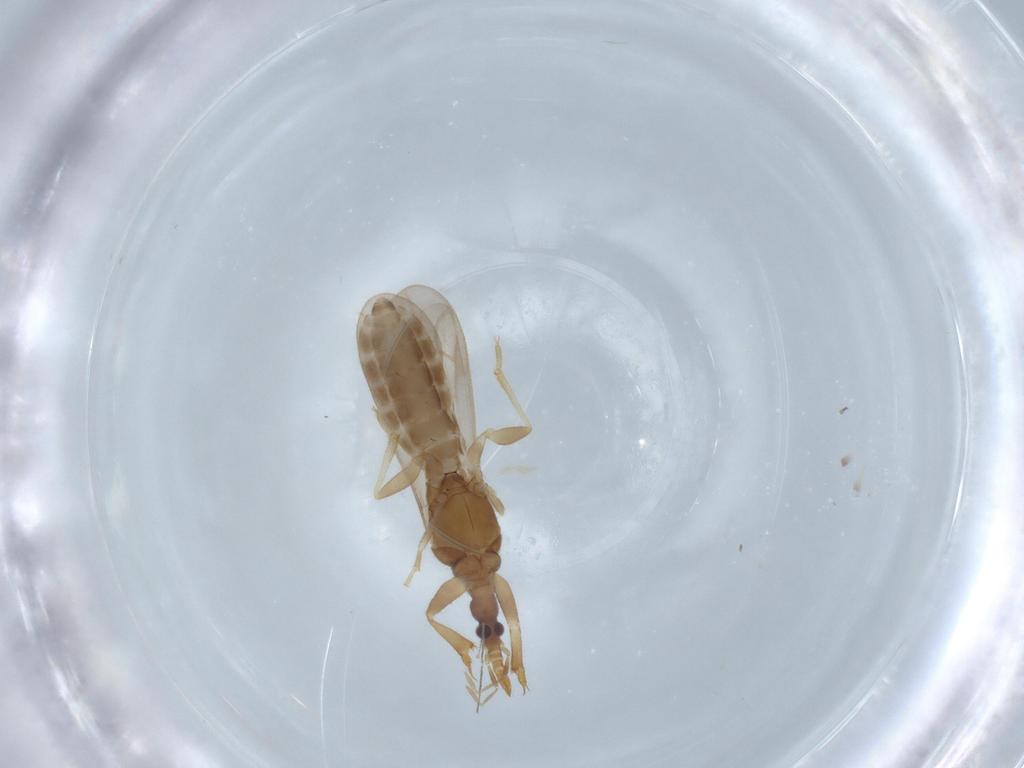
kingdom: Animalia
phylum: Arthropoda
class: Insecta
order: Hemiptera
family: Enicocephalidae
